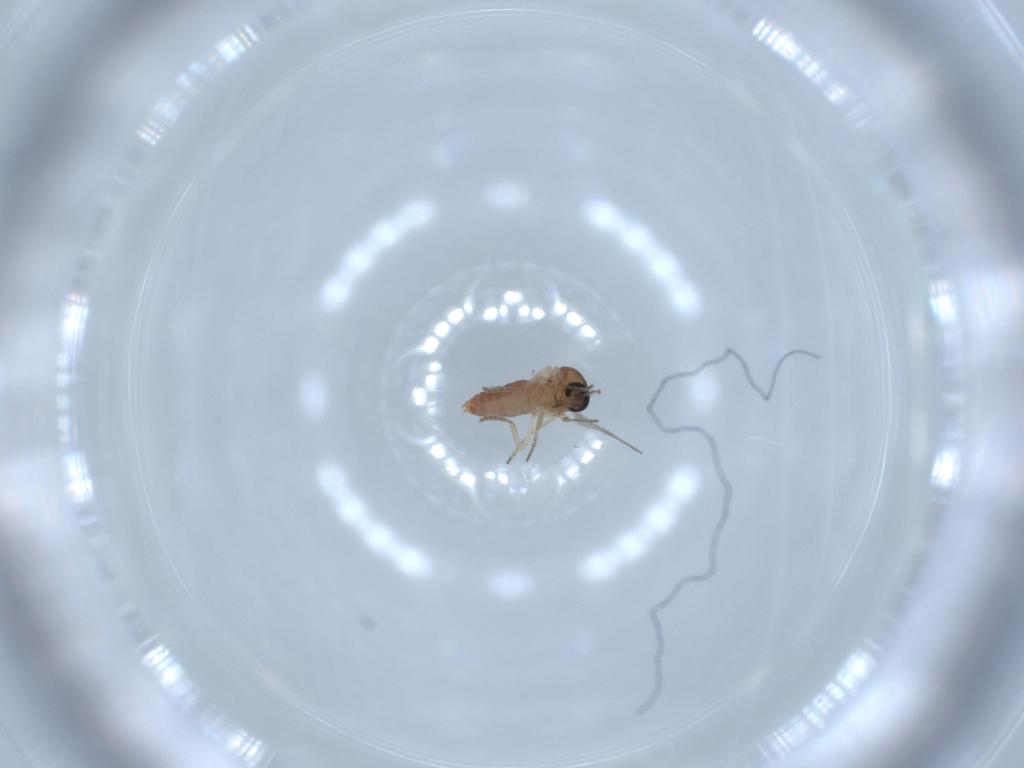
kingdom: Animalia
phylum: Arthropoda
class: Insecta
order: Diptera
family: Ceratopogonidae
